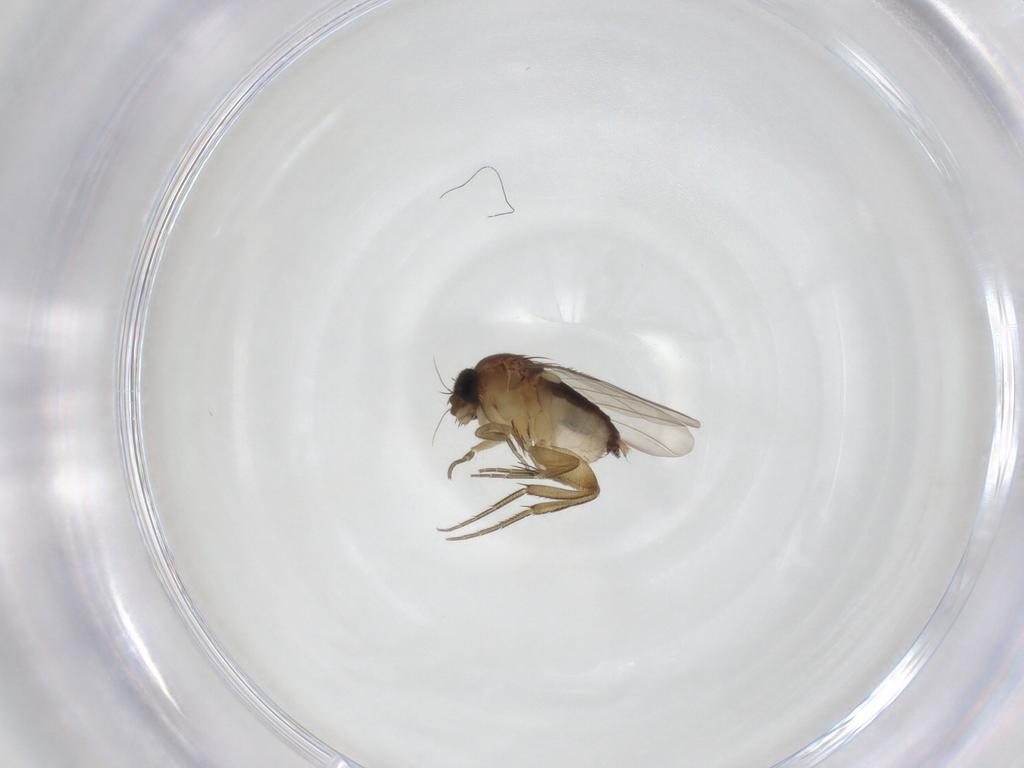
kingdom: Animalia
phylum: Arthropoda
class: Insecta
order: Diptera
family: Phoridae
